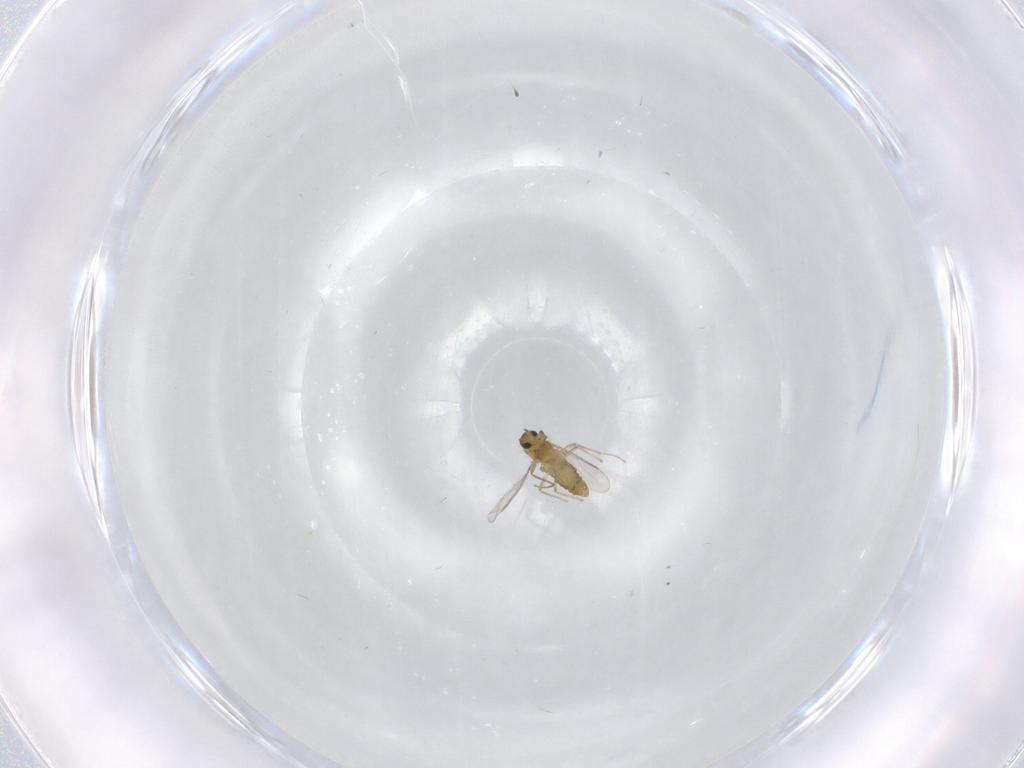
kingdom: Animalia
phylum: Arthropoda
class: Insecta
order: Diptera
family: Chironomidae
